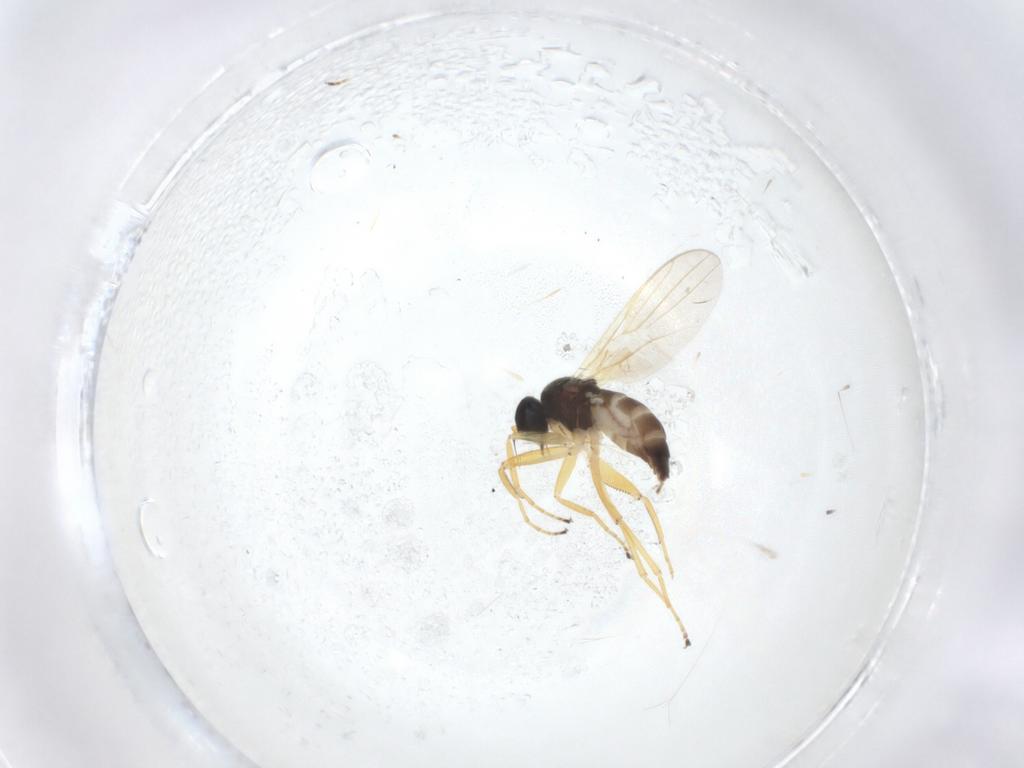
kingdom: Animalia
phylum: Arthropoda
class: Insecta
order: Diptera
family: Hybotidae
